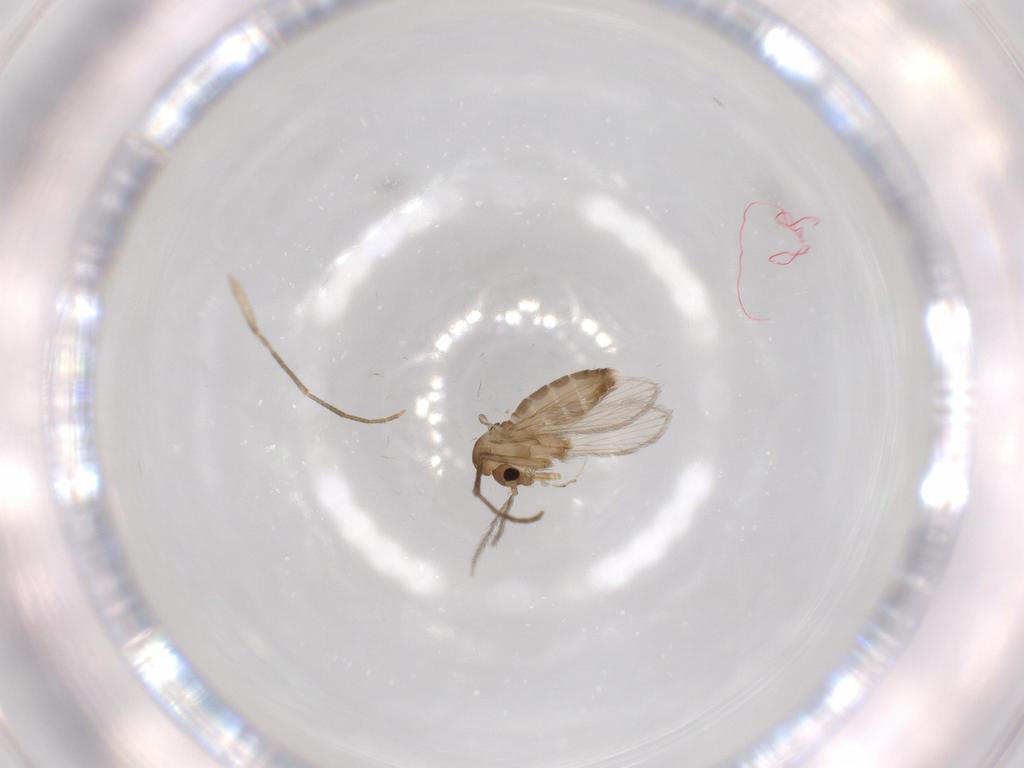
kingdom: Animalia
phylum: Arthropoda
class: Insecta
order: Diptera
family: Psychodidae
